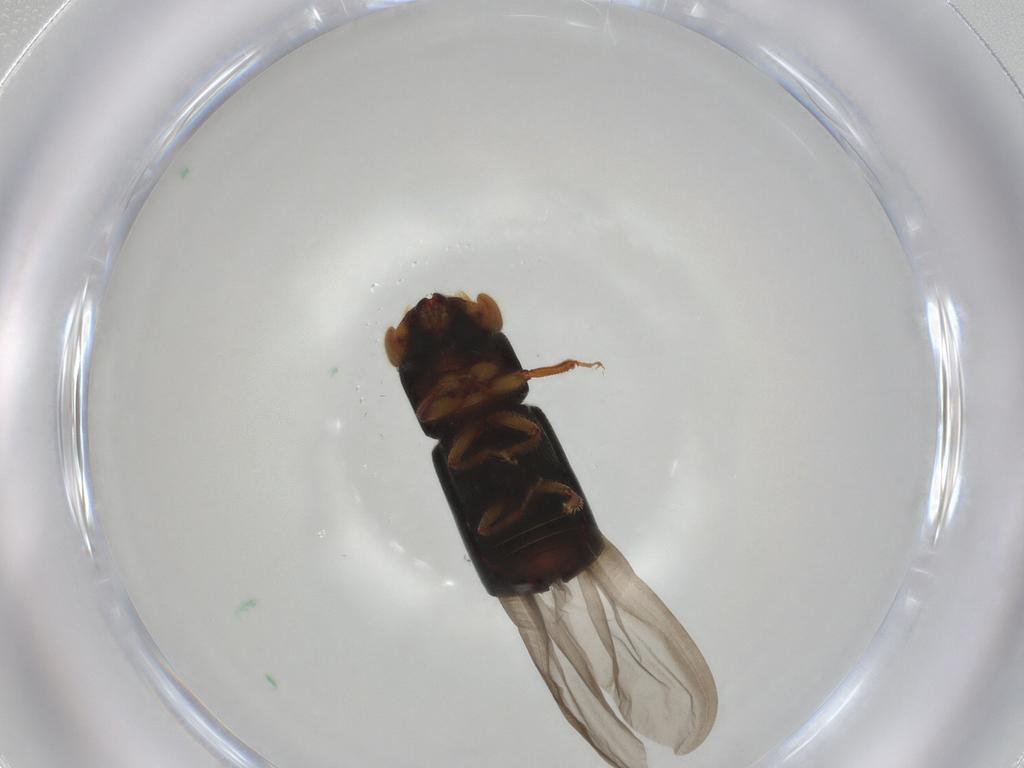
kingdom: Animalia
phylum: Arthropoda
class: Insecta
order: Coleoptera
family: Curculionidae
